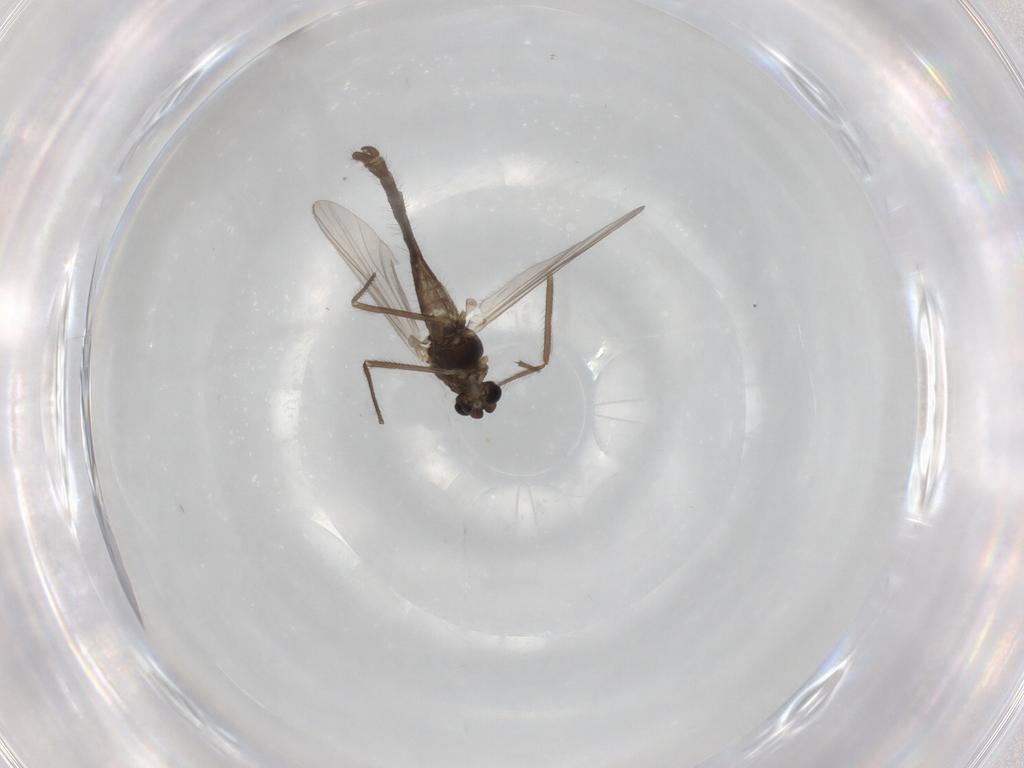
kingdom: Animalia
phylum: Arthropoda
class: Insecta
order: Diptera
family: Chironomidae
